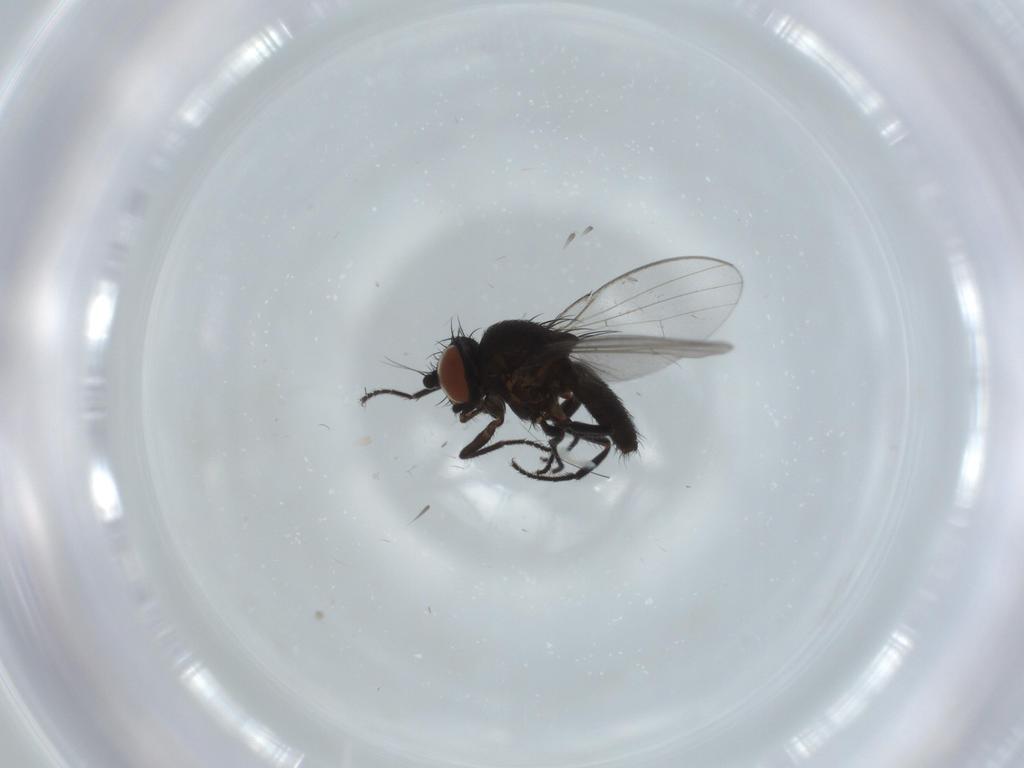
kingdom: Animalia
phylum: Arthropoda
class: Insecta
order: Diptera
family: Milichiidae
